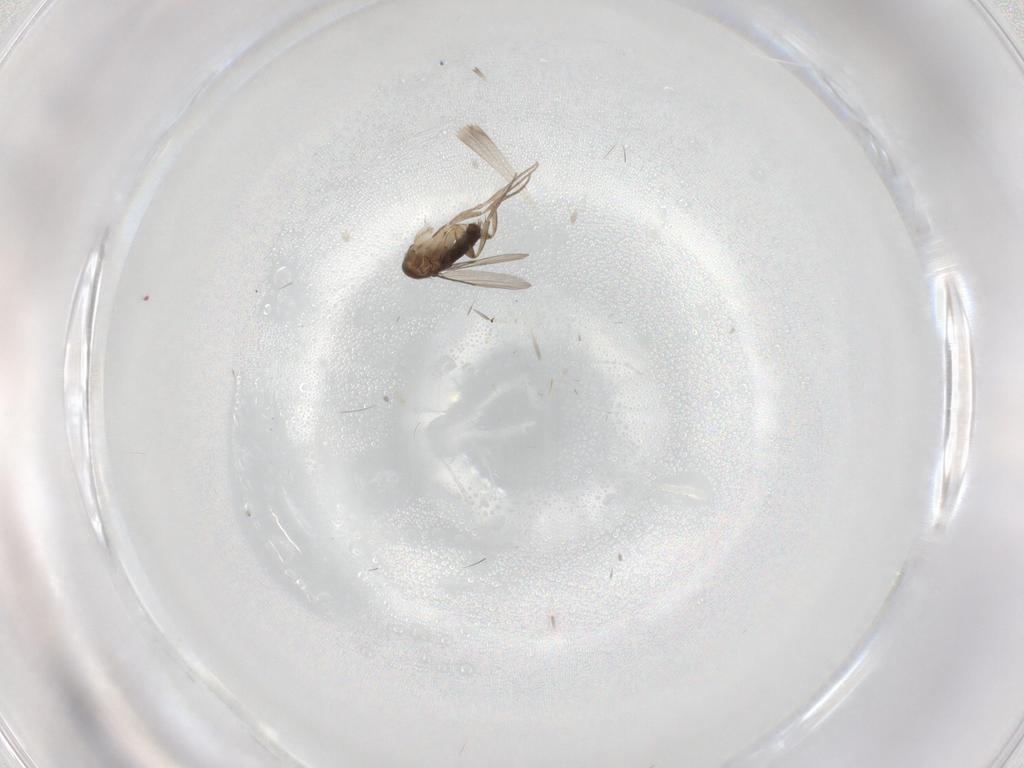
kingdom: Animalia
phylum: Arthropoda
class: Insecta
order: Diptera
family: Phoridae
